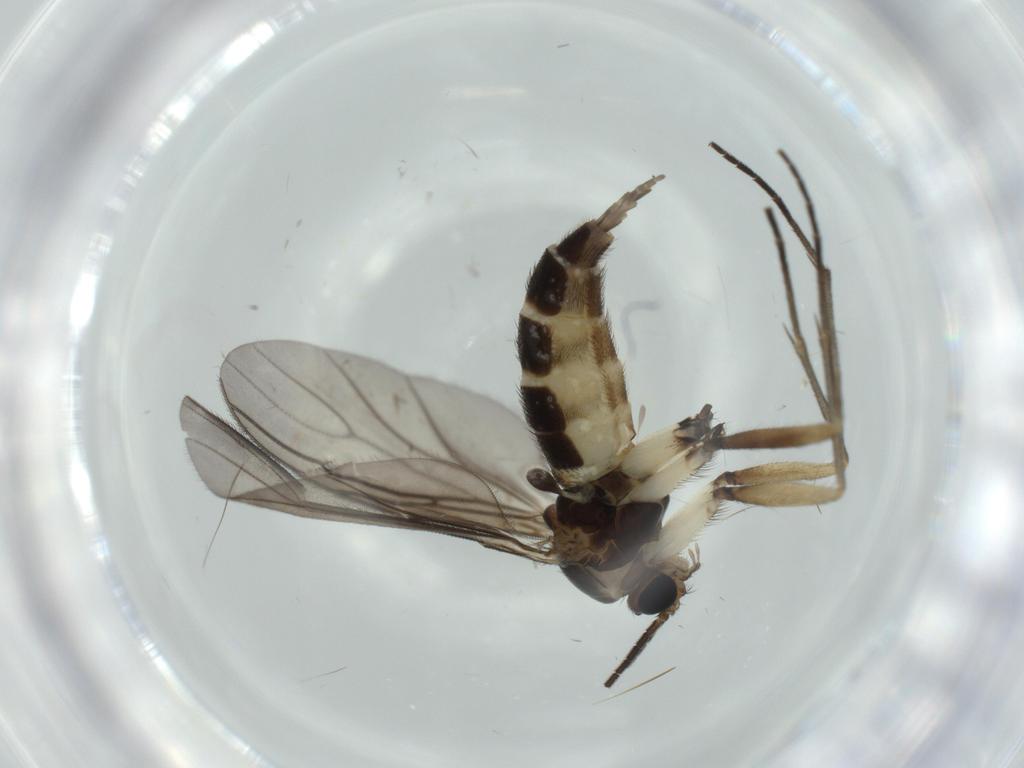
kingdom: Animalia
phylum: Arthropoda
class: Insecta
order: Diptera
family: Sciaridae
